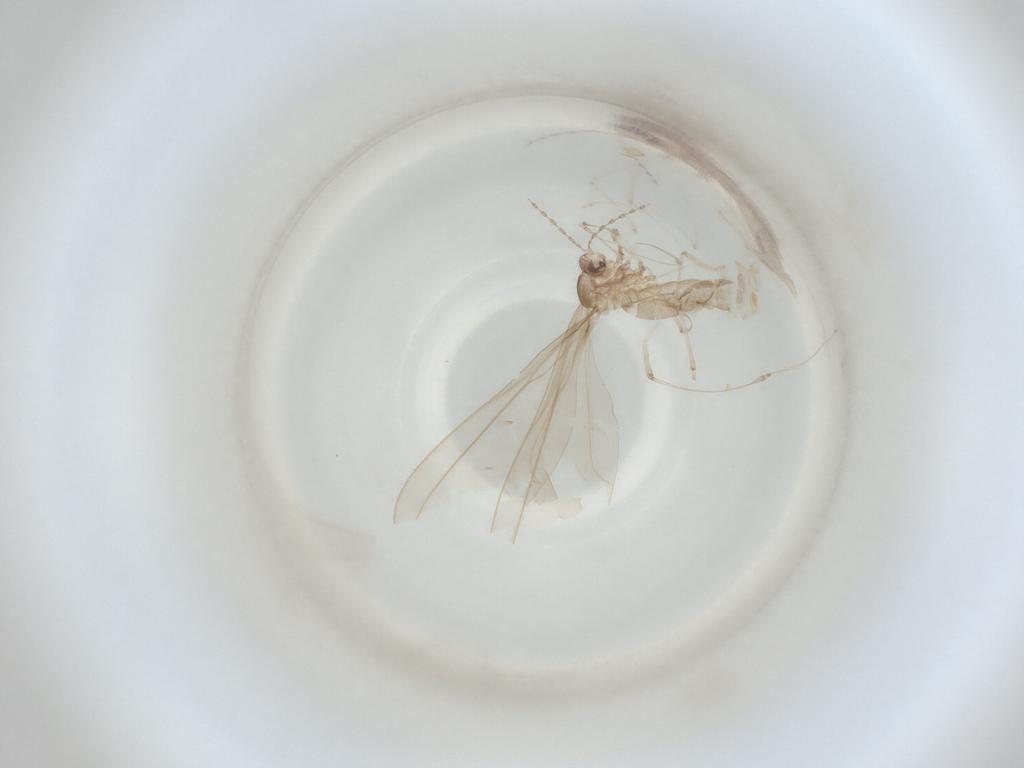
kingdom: Animalia
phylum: Arthropoda
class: Insecta
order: Diptera
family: Cecidomyiidae
